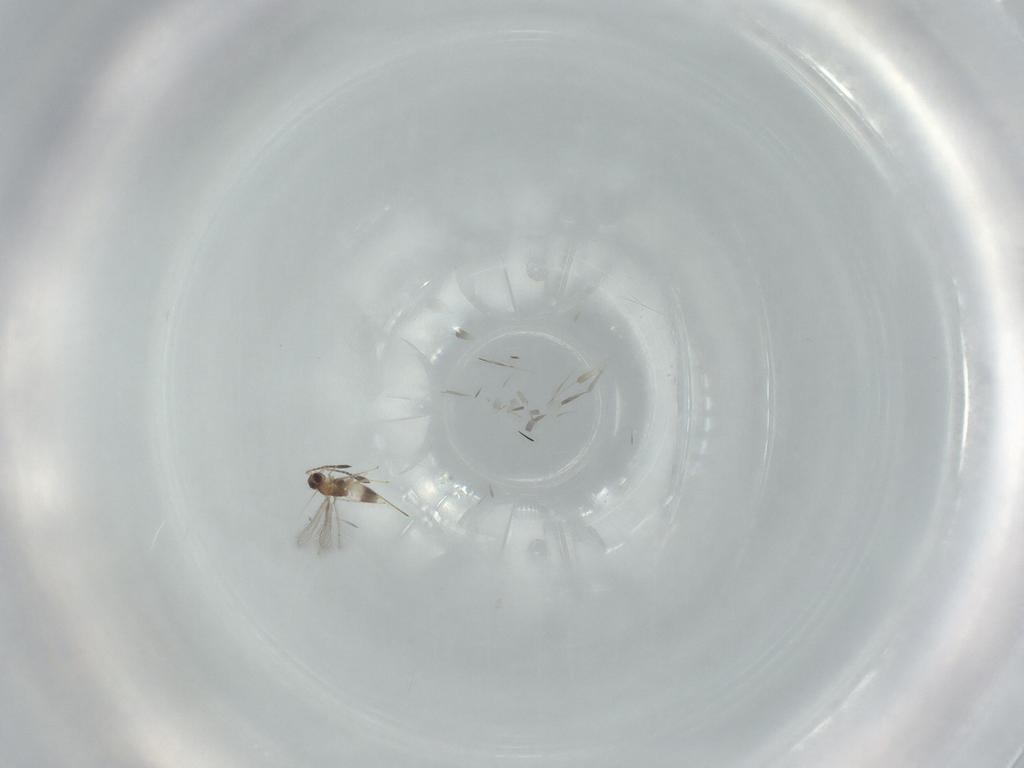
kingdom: Animalia
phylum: Arthropoda
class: Insecta
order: Hymenoptera
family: Mymaridae
